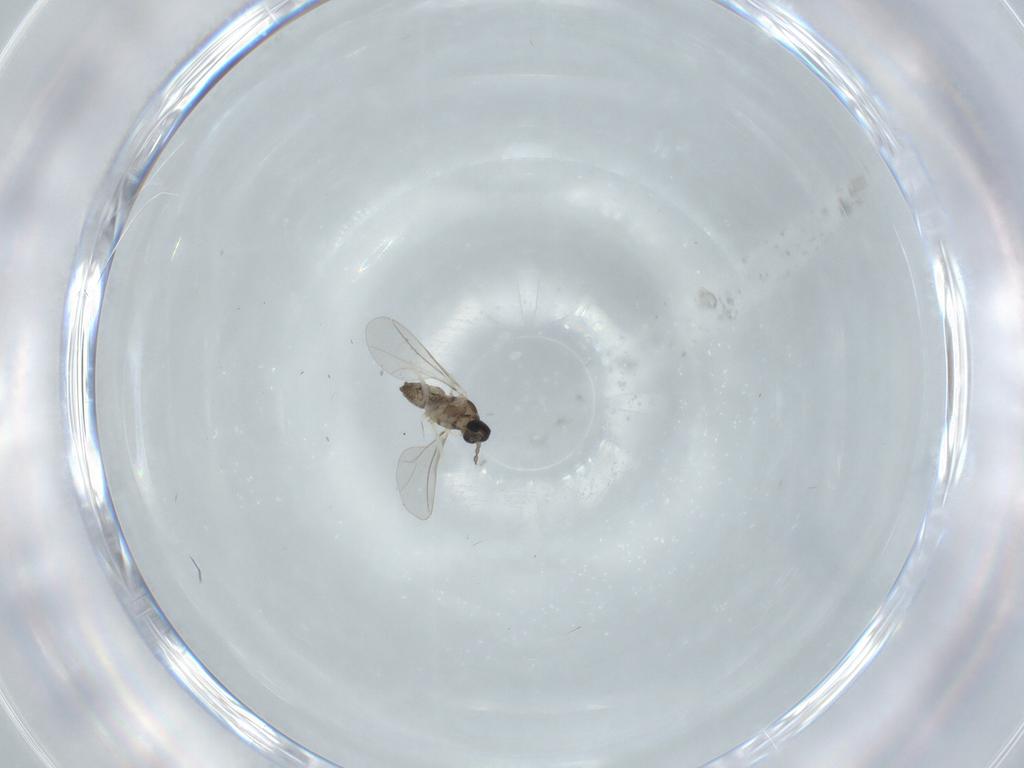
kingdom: Animalia
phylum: Arthropoda
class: Insecta
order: Diptera
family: Cecidomyiidae
